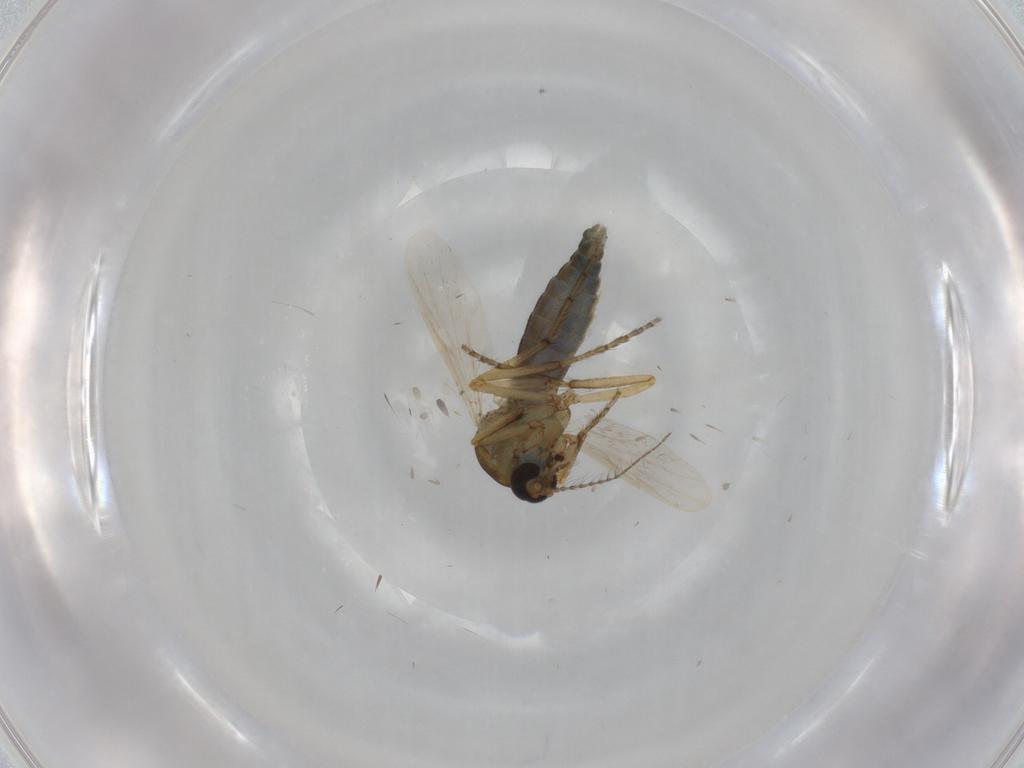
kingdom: Animalia
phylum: Arthropoda
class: Insecta
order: Diptera
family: Ceratopogonidae
